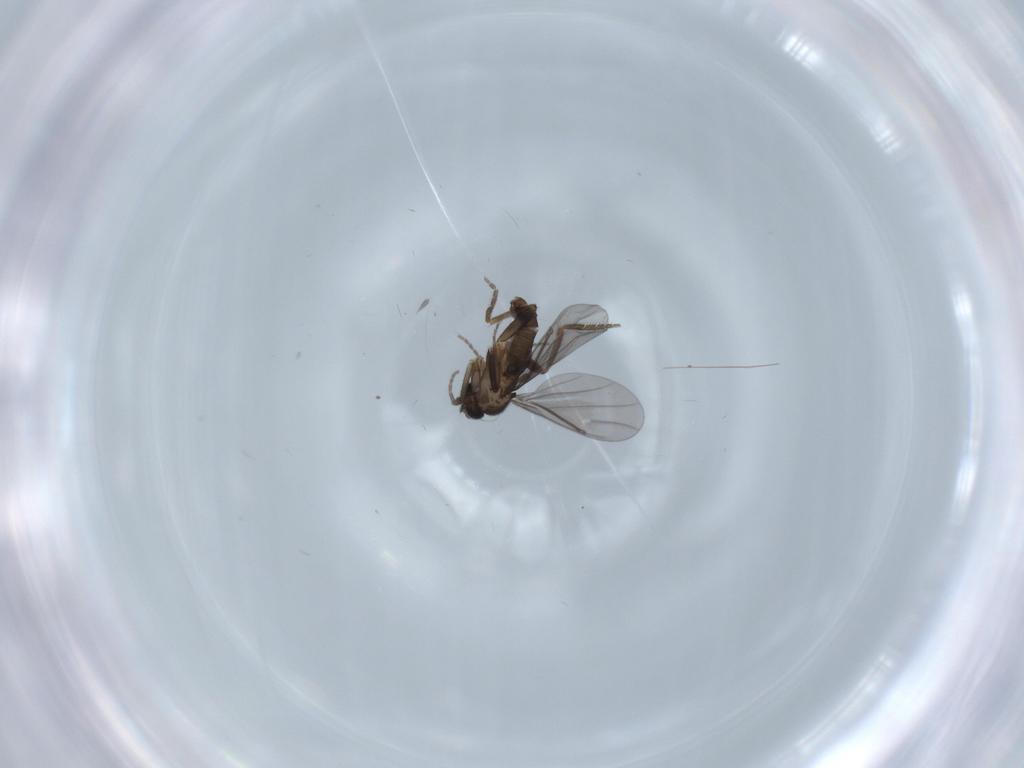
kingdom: Animalia
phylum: Arthropoda
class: Insecta
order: Diptera
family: Phoridae
